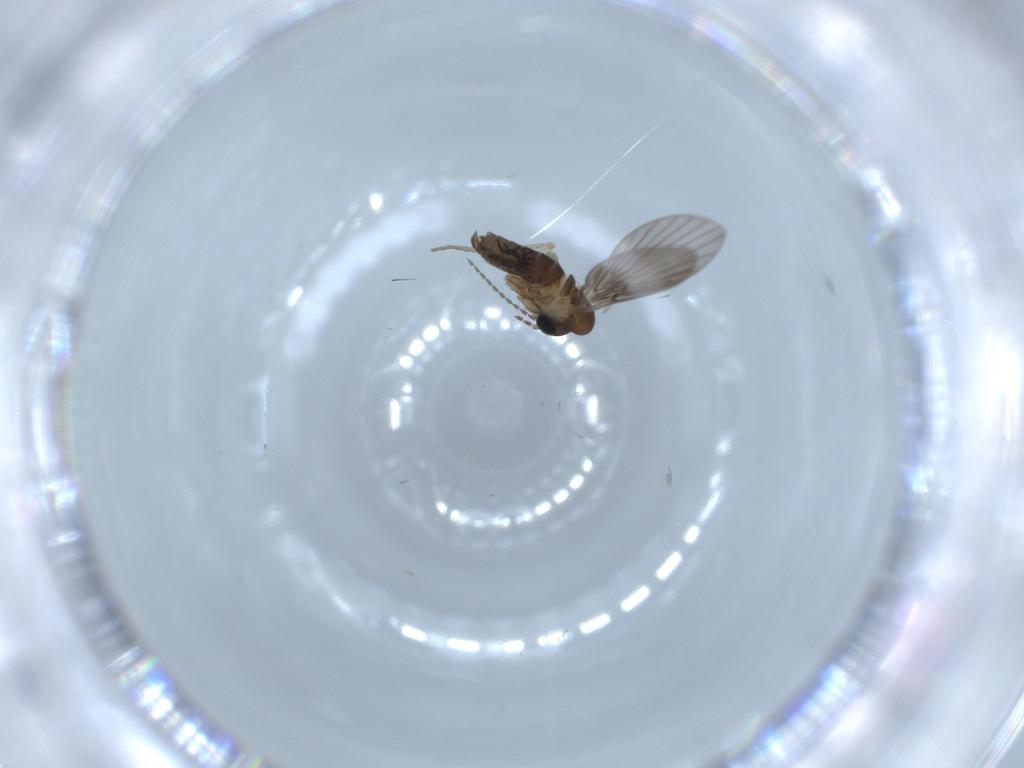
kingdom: Animalia
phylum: Arthropoda
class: Insecta
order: Diptera
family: Psychodidae
